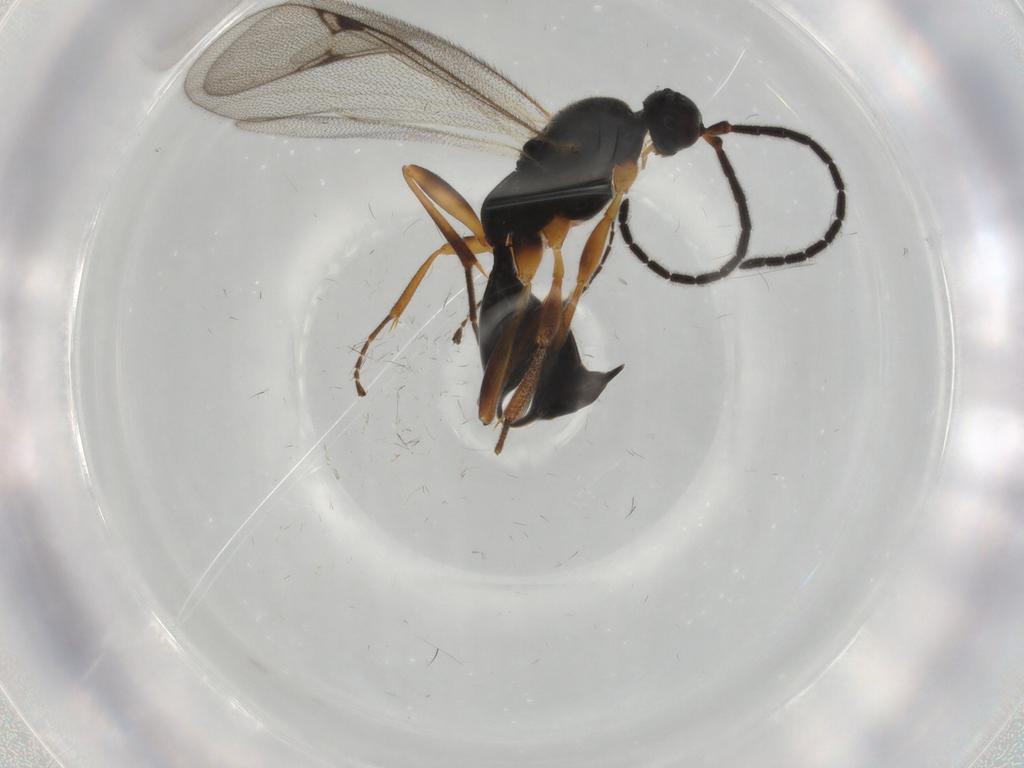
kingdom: Animalia
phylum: Arthropoda
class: Insecta
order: Hymenoptera
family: Proctotrupidae
